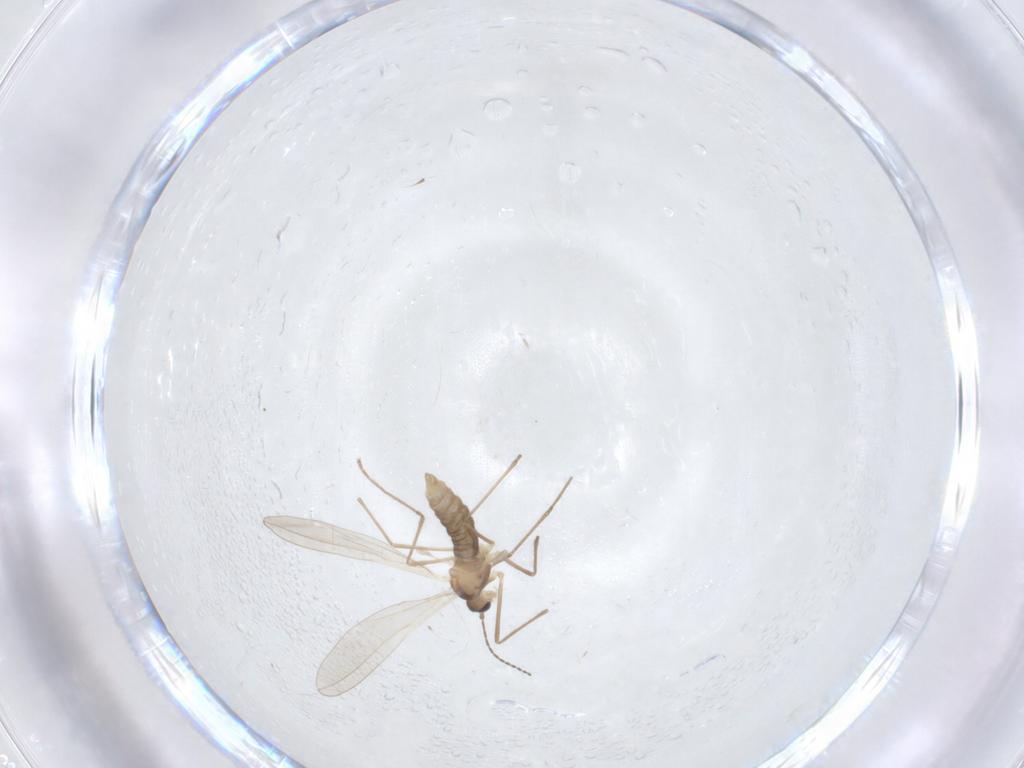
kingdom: Animalia
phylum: Arthropoda
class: Insecta
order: Diptera
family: Cecidomyiidae
